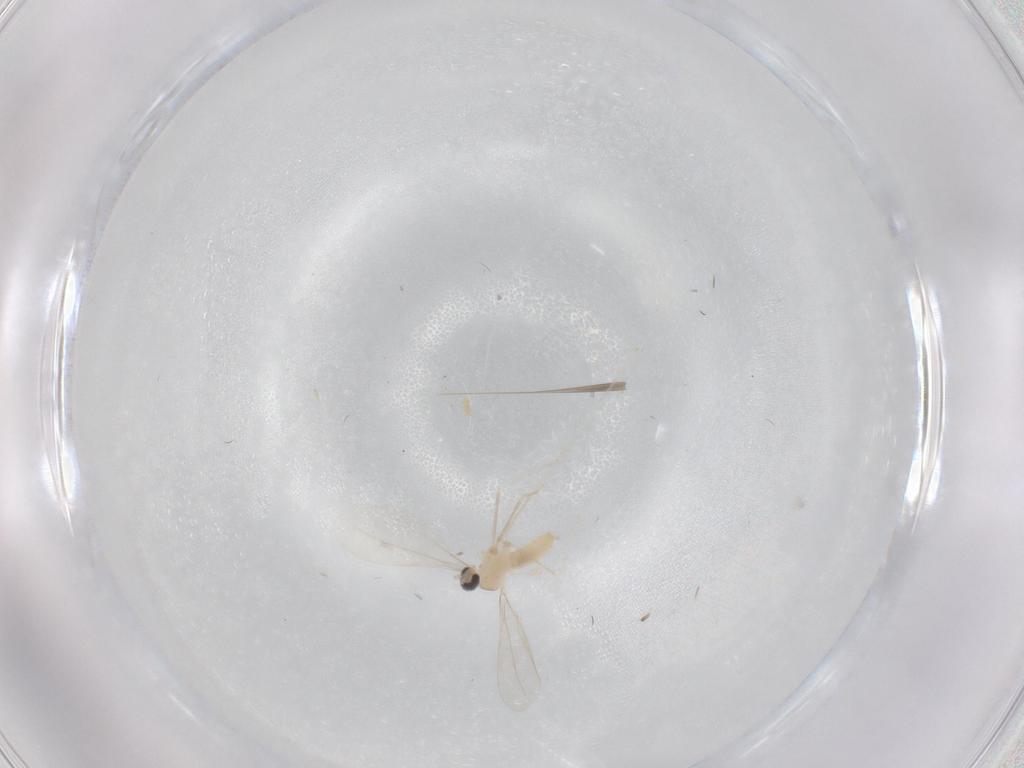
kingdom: Animalia
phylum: Arthropoda
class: Insecta
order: Diptera
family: Cecidomyiidae
